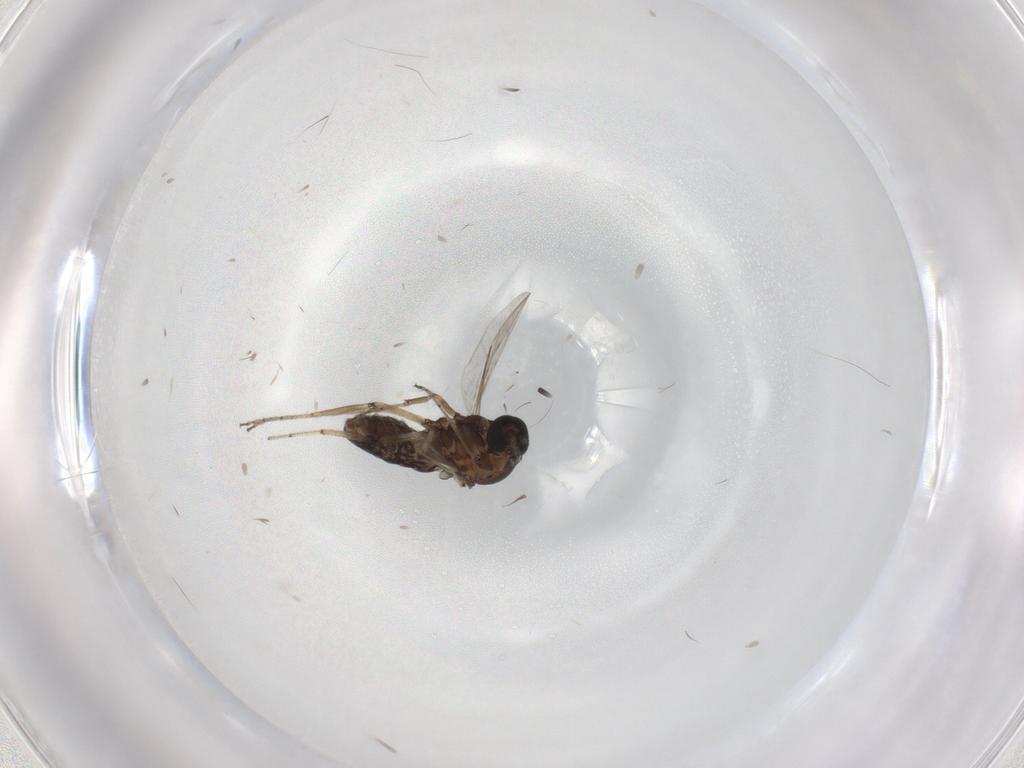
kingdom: Animalia
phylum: Arthropoda
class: Insecta
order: Diptera
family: Ceratopogonidae
